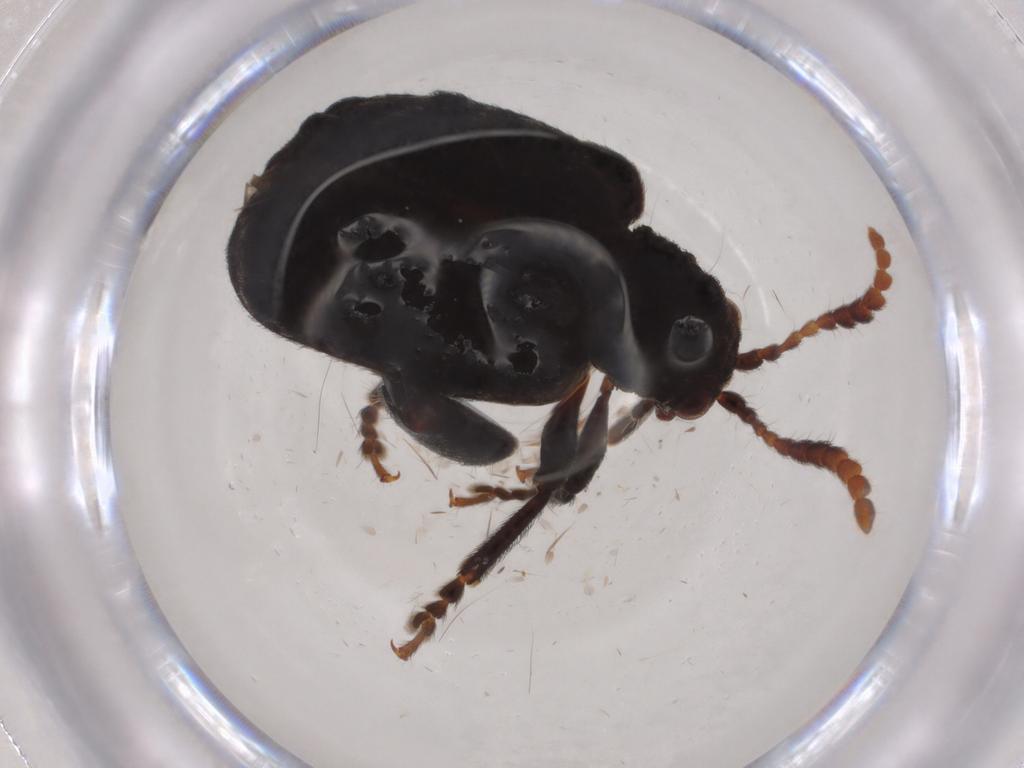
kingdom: Animalia
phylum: Arthropoda
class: Insecta
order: Coleoptera
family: Ptilodactylidae
